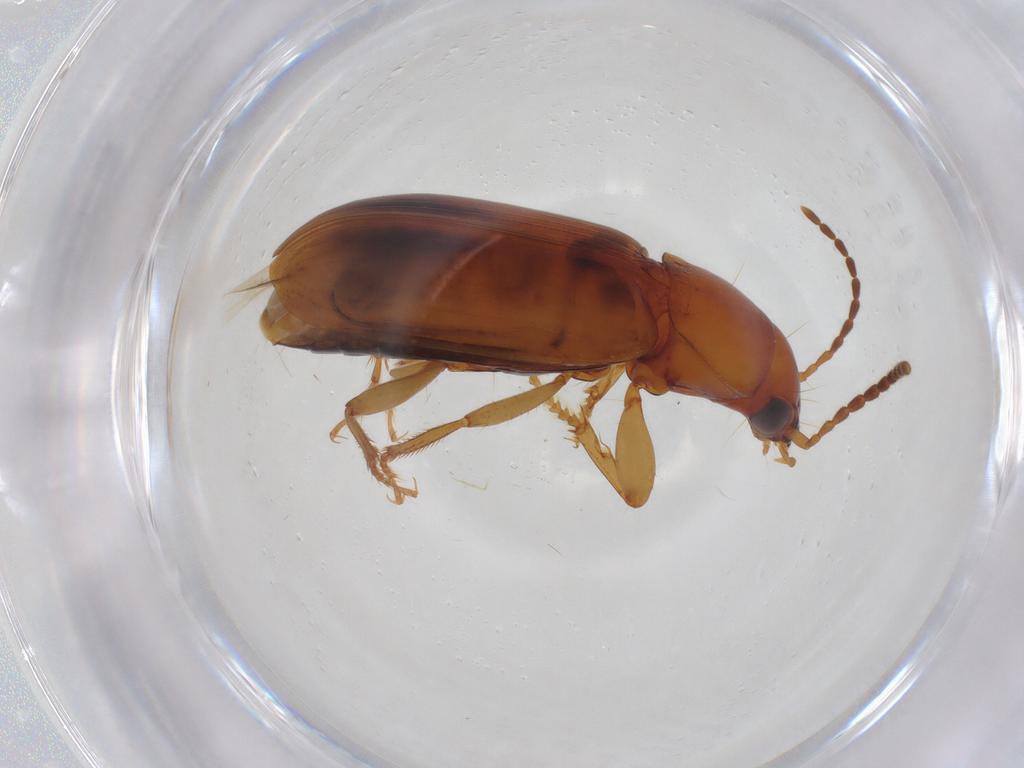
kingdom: Animalia
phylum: Arthropoda
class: Insecta
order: Coleoptera
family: Carabidae
